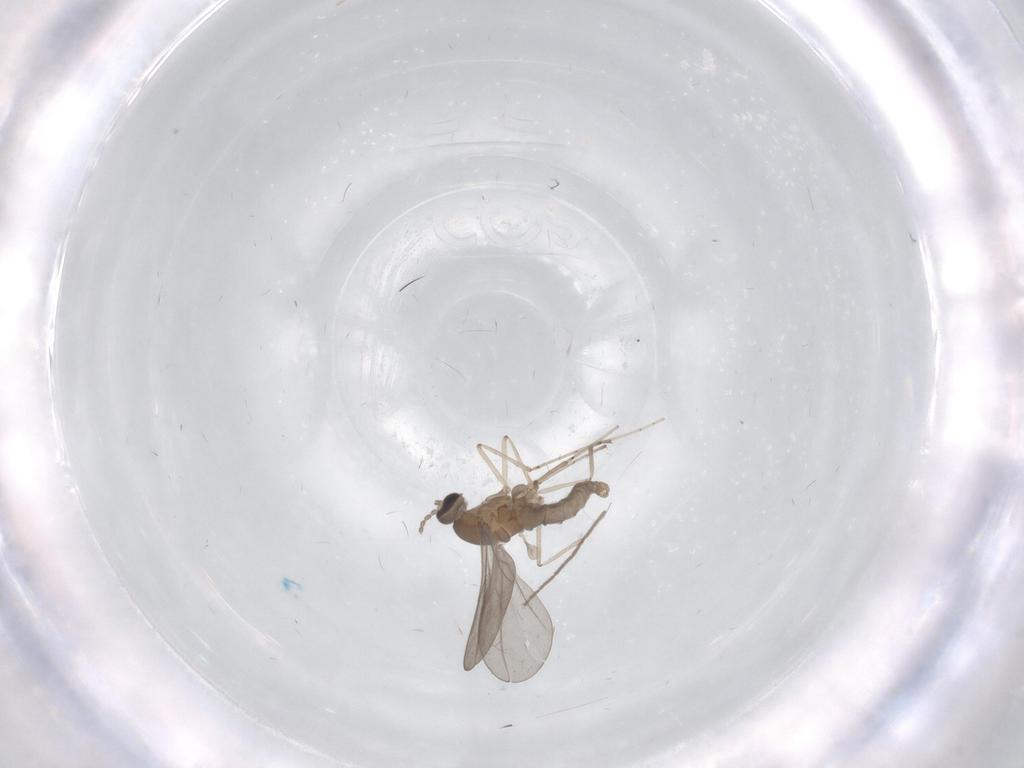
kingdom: Animalia
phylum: Arthropoda
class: Insecta
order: Diptera
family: Chironomidae
